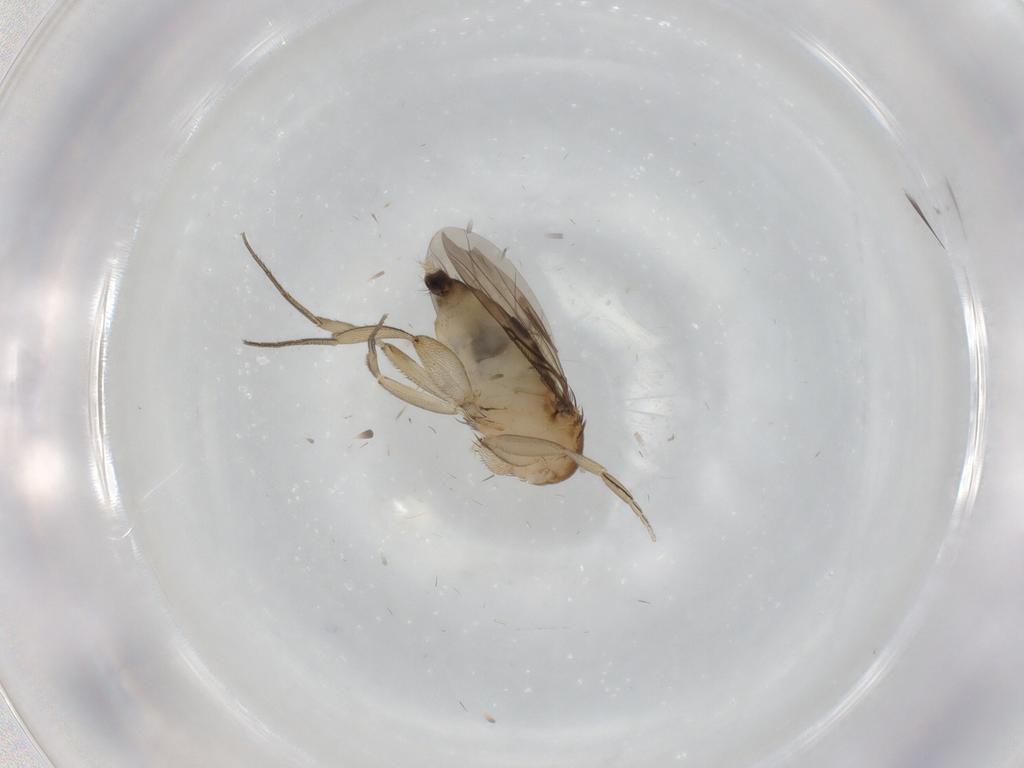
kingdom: Animalia
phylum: Arthropoda
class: Insecta
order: Diptera
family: Phoridae
